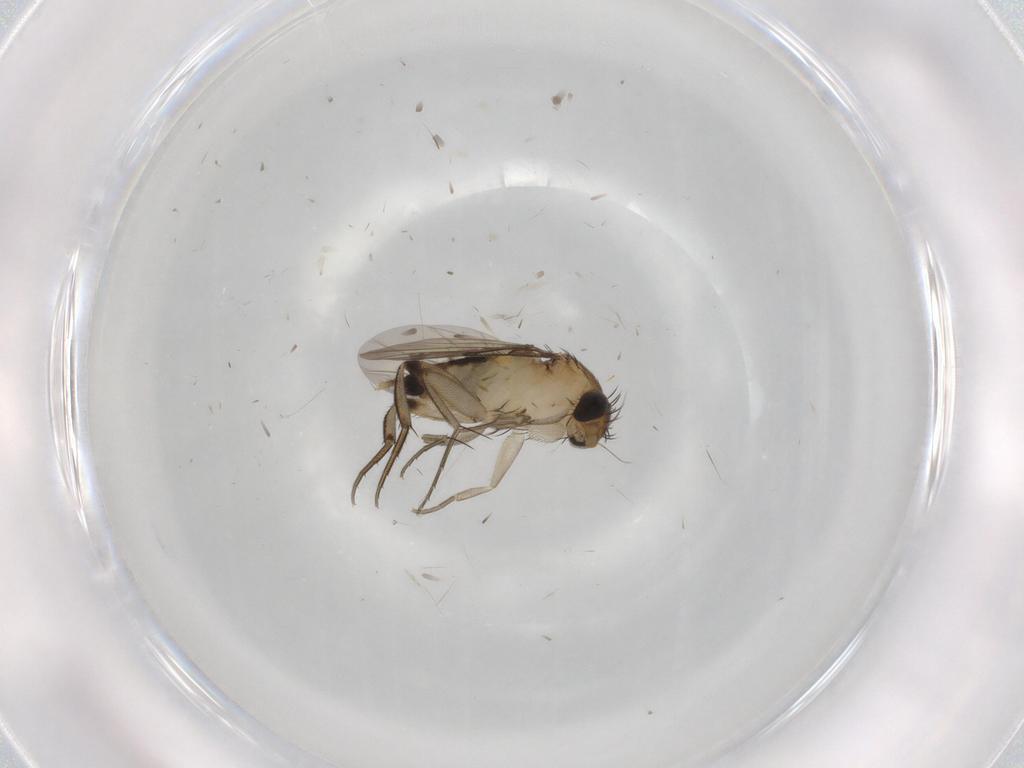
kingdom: Animalia
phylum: Arthropoda
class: Insecta
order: Diptera
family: Phoridae
